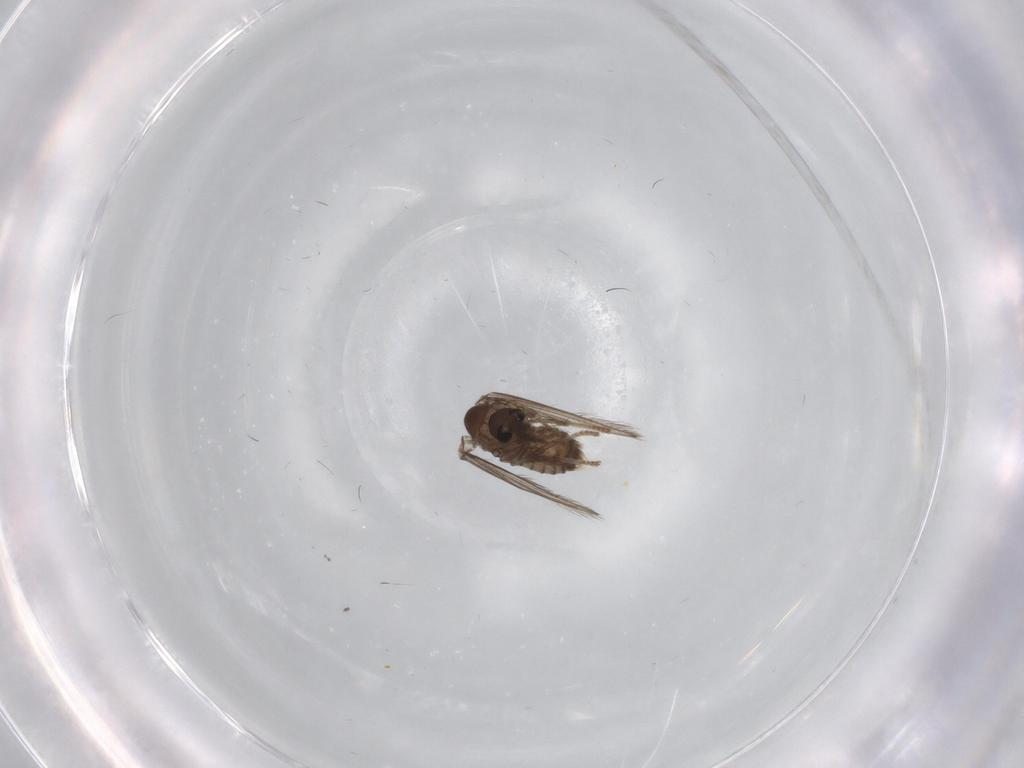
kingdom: Animalia
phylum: Arthropoda
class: Insecta
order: Diptera
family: Psychodidae
